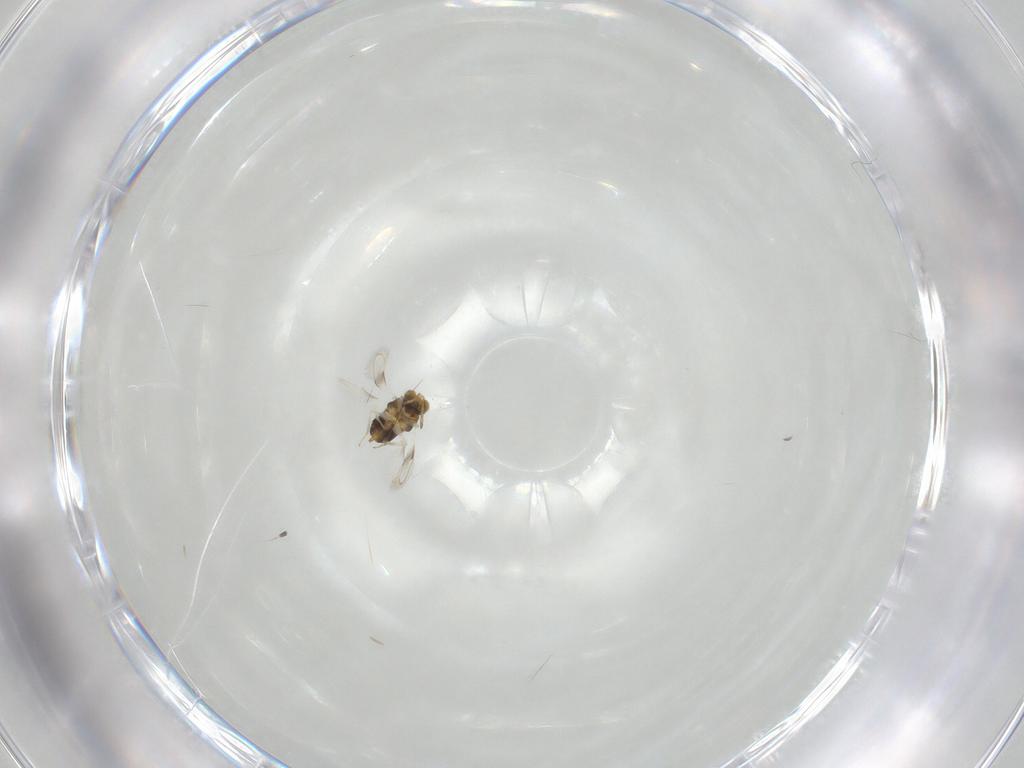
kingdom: Animalia
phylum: Arthropoda
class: Insecta
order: Hymenoptera
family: Aphelinidae
